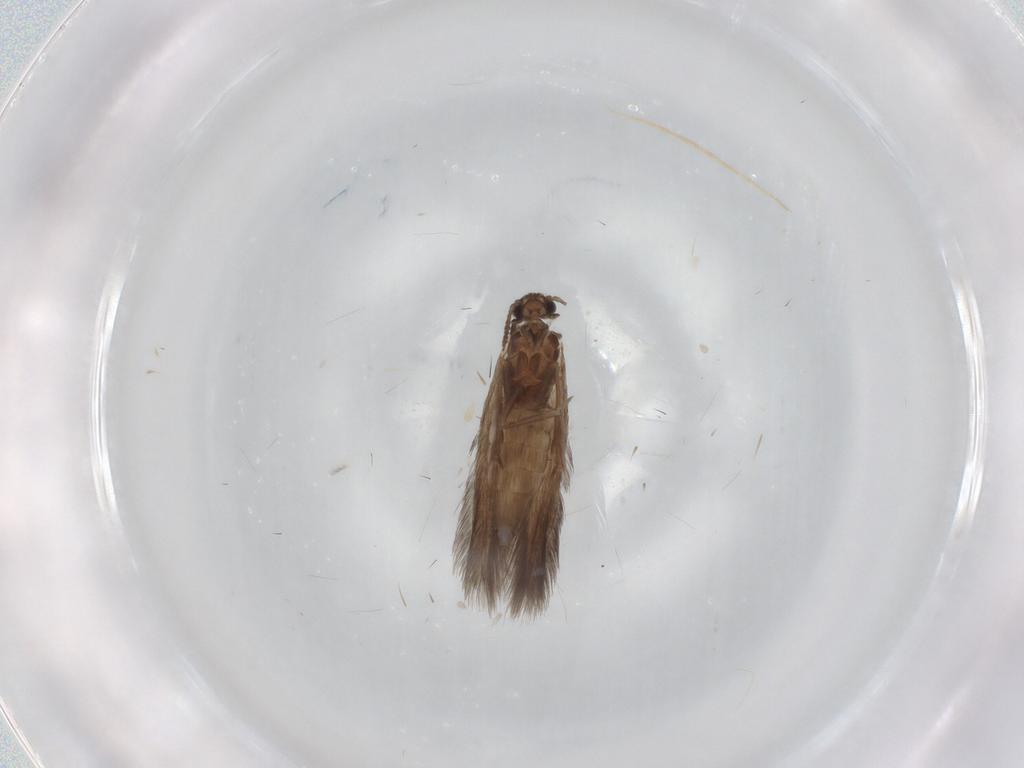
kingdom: Animalia
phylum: Arthropoda
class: Insecta
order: Trichoptera
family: Hydroptilidae
